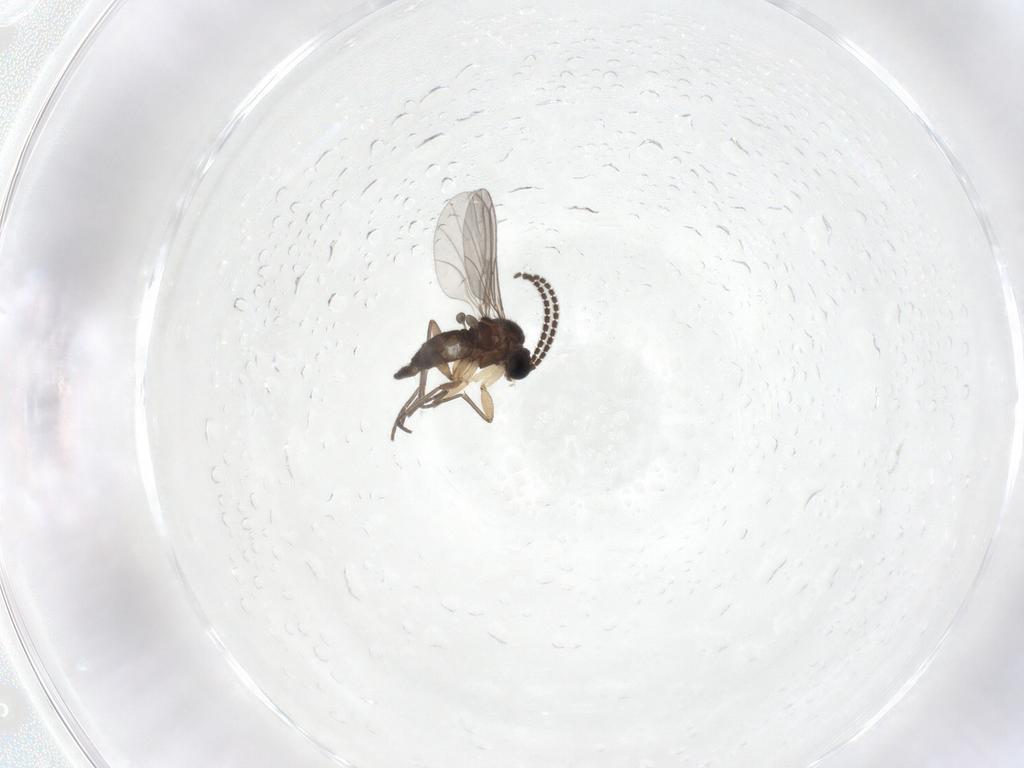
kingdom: Animalia
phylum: Arthropoda
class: Insecta
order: Diptera
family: Sciaridae
